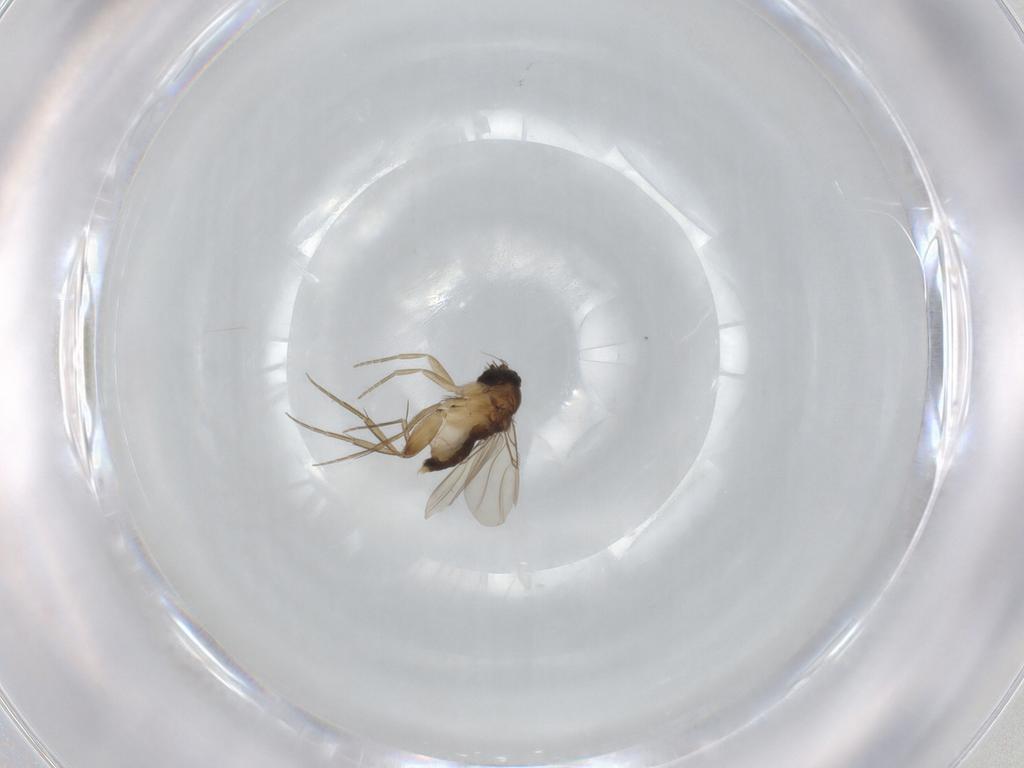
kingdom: Animalia
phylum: Arthropoda
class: Insecta
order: Diptera
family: Phoridae
